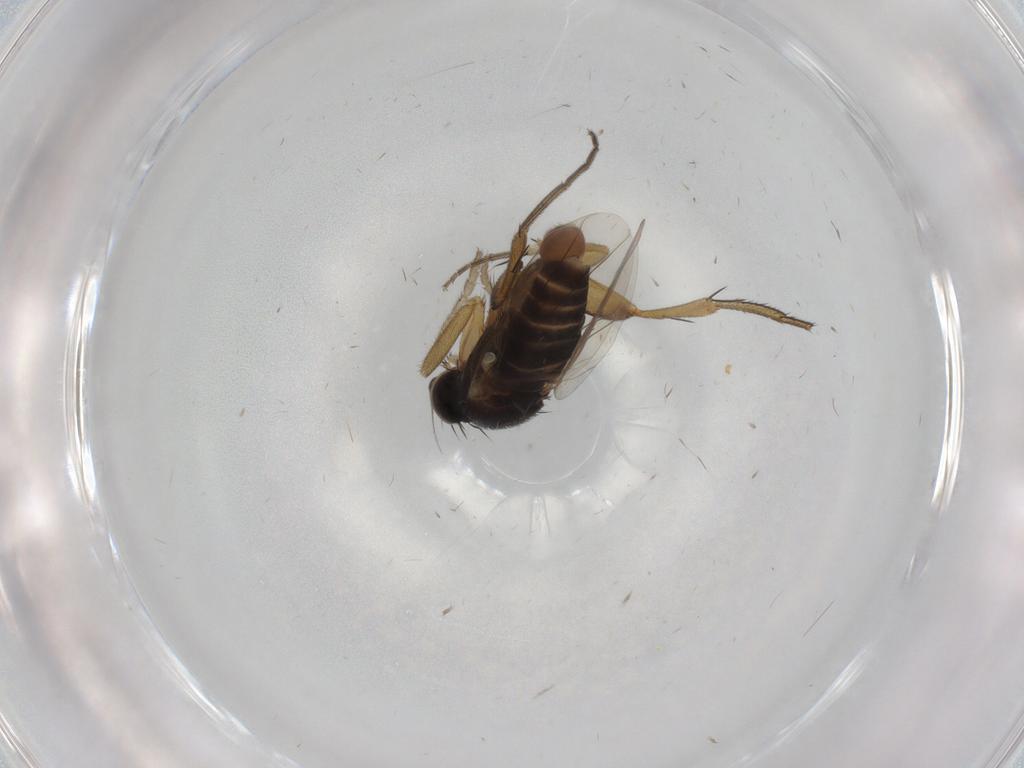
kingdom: Animalia
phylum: Arthropoda
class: Insecta
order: Diptera
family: Phoridae
